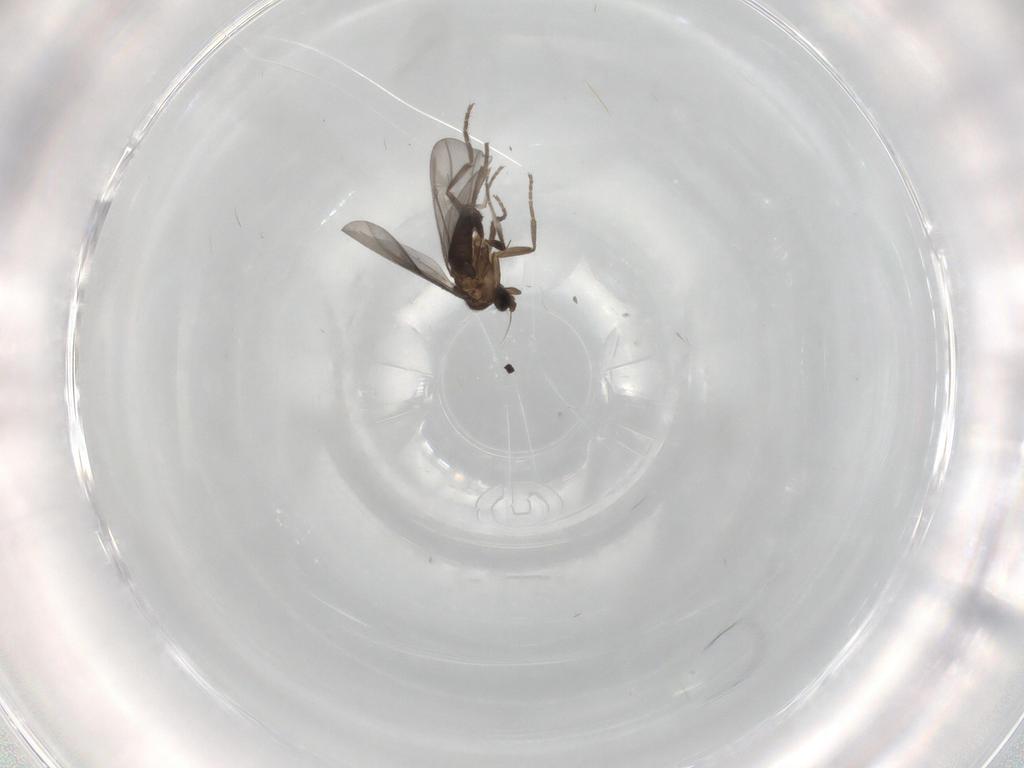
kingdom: Animalia
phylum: Arthropoda
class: Insecta
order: Diptera
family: Phoridae
